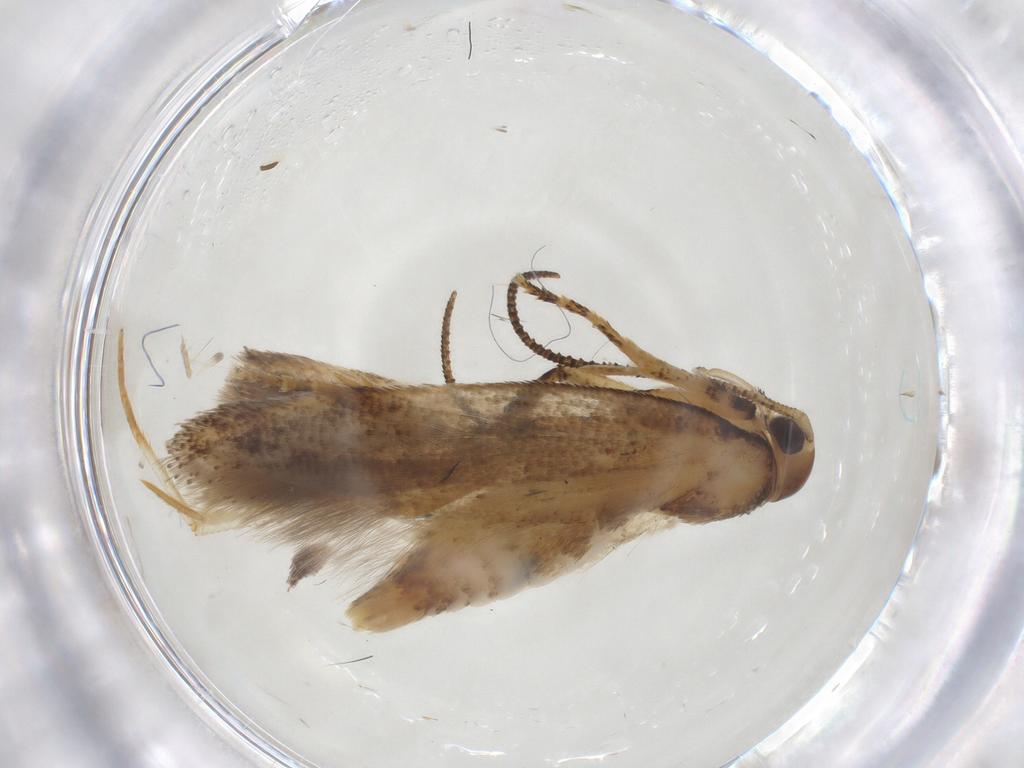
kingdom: Animalia
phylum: Arthropoda
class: Insecta
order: Lepidoptera
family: Gelechiidae
